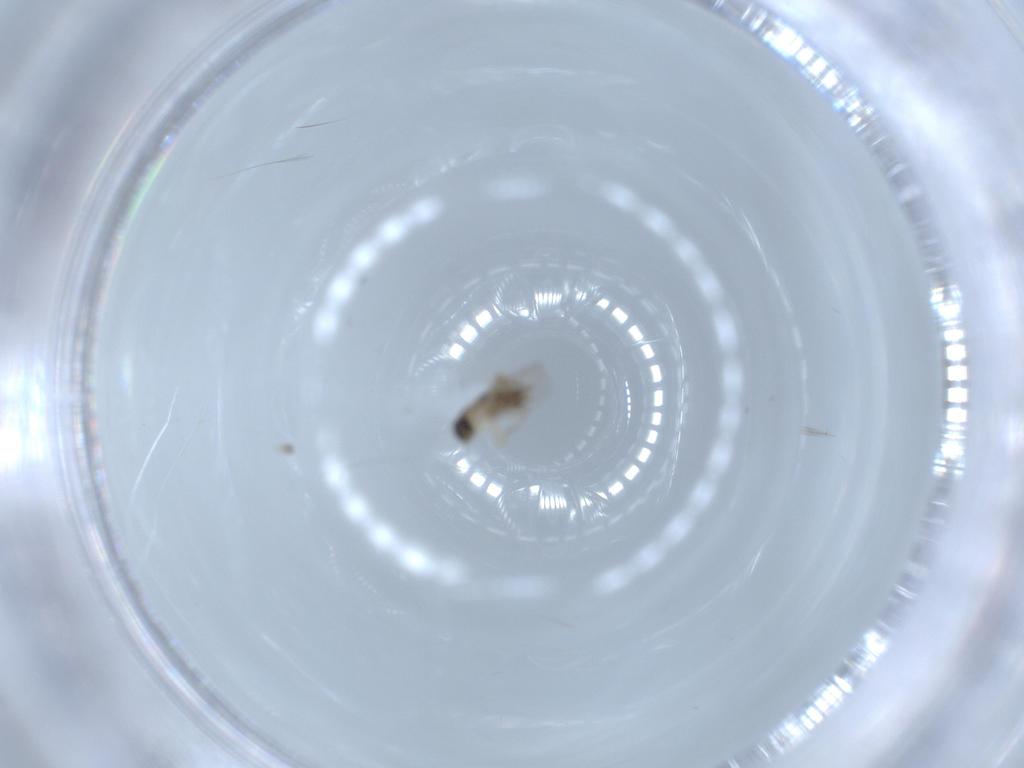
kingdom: Animalia
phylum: Arthropoda
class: Insecta
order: Diptera
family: Phoridae
